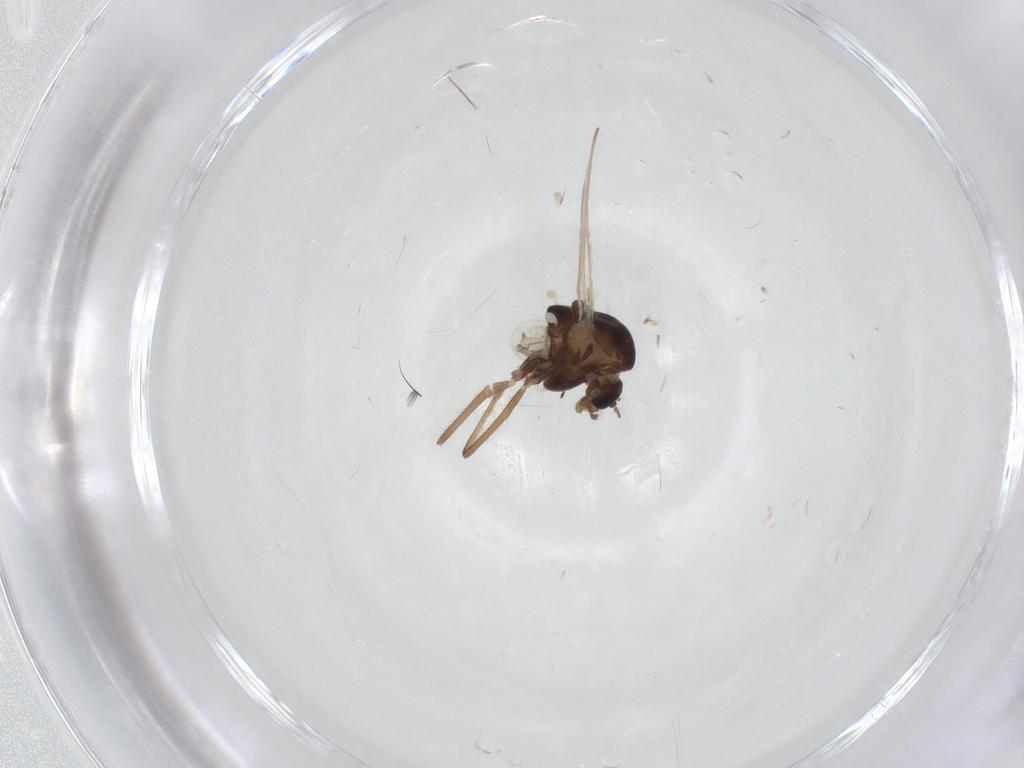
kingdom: Animalia
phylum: Arthropoda
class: Insecta
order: Diptera
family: Chironomidae
